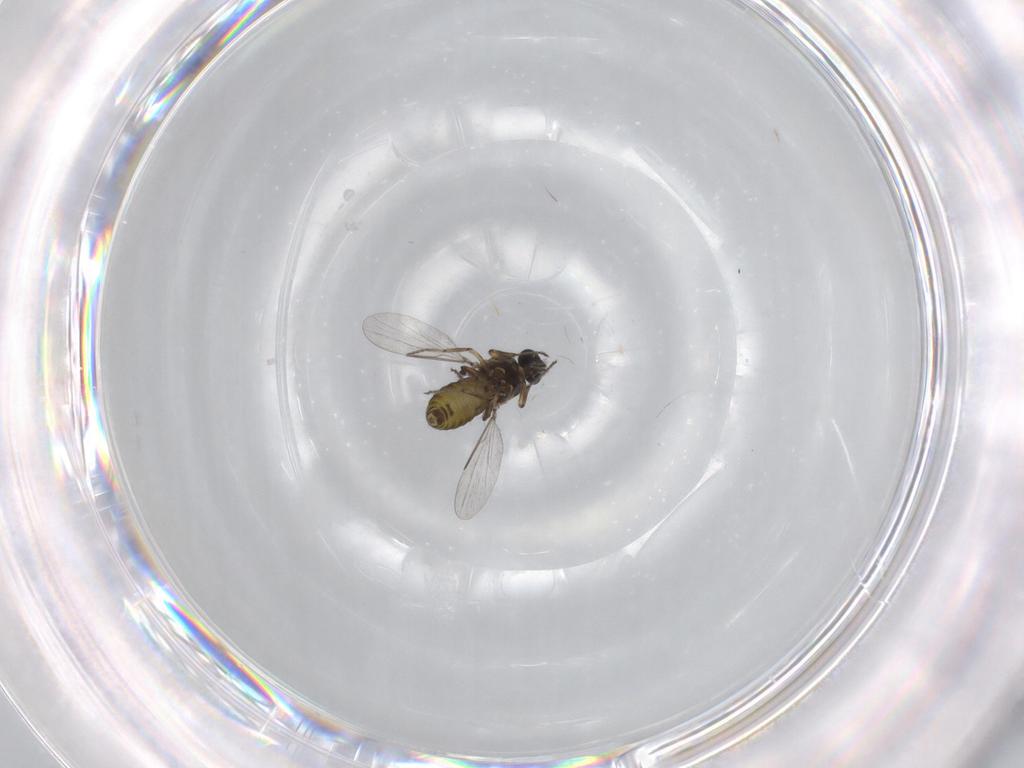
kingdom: Animalia
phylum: Arthropoda
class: Insecta
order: Diptera
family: Ceratopogonidae
